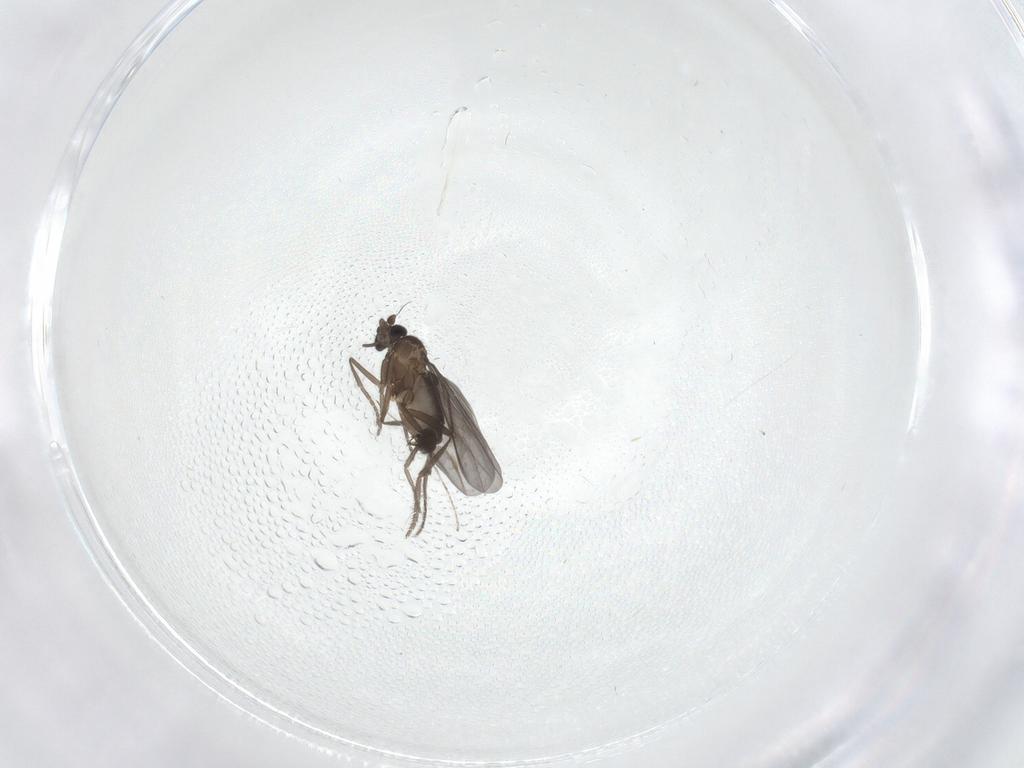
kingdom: Animalia
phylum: Arthropoda
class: Insecta
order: Diptera
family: Phoridae
